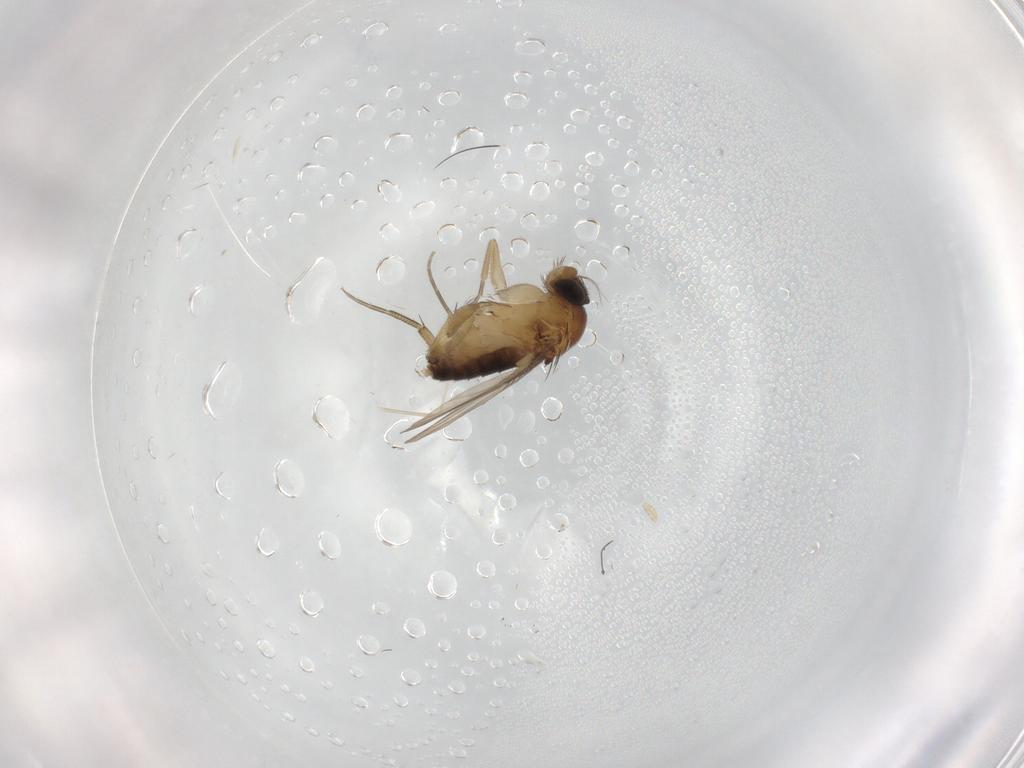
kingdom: Animalia
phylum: Arthropoda
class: Insecta
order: Diptera
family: Phoridae
